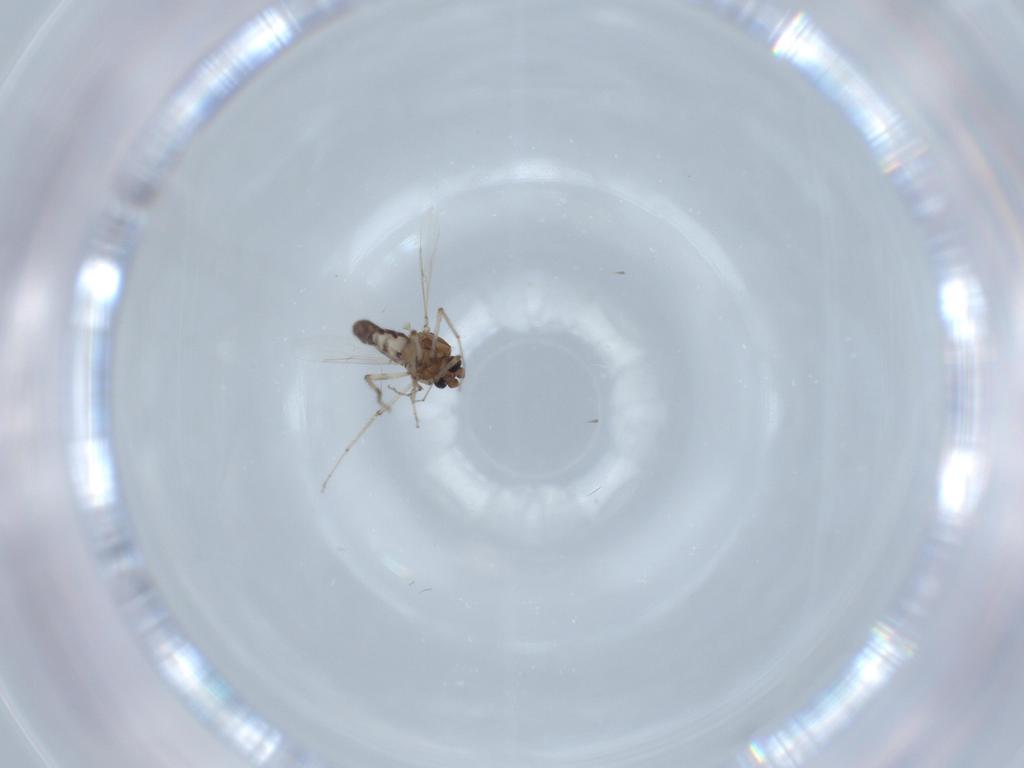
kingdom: Animalia
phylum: Arthropoda
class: Insecta
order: Diptera
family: Ceratopogonidae
